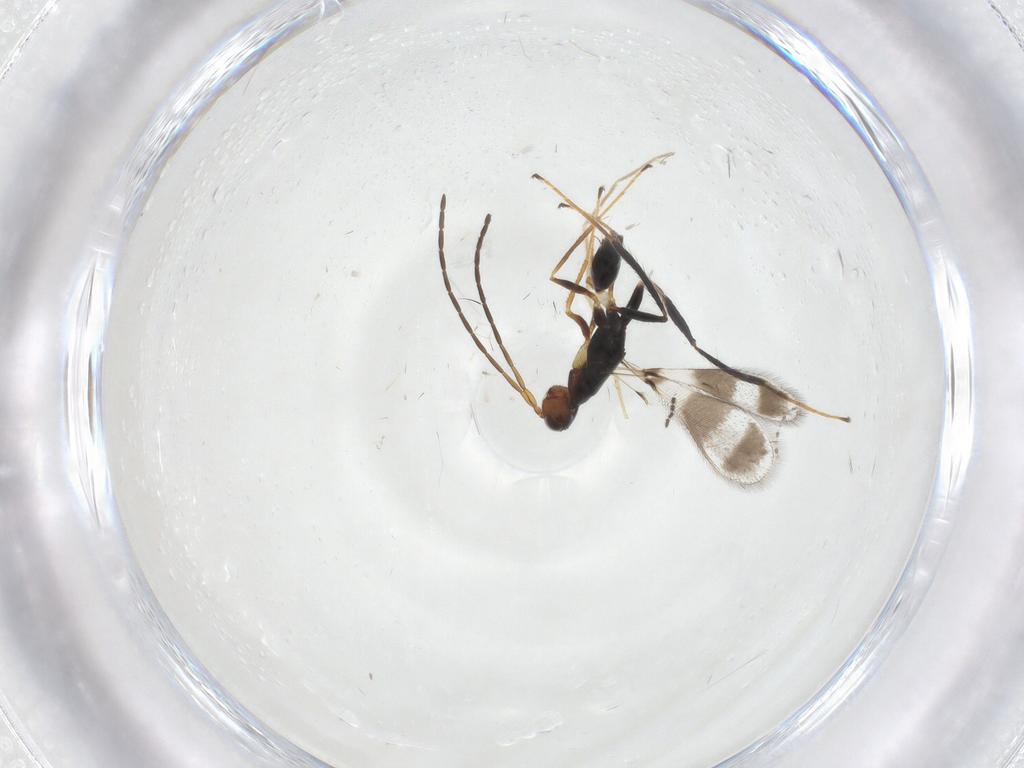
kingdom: Animalia
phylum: Arthropoda
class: Insecta
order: Hymenoptera
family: Mymaridae
